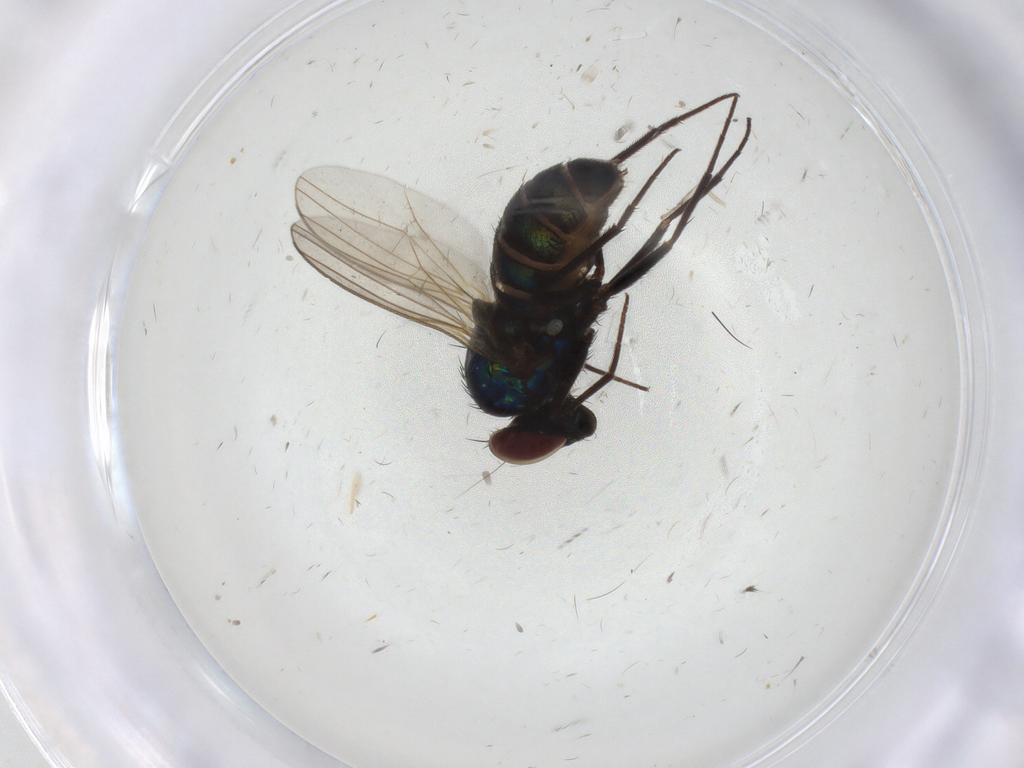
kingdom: Animalia
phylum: Arthropoda
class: Insecta
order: Diptera
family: Dolichopodidae
